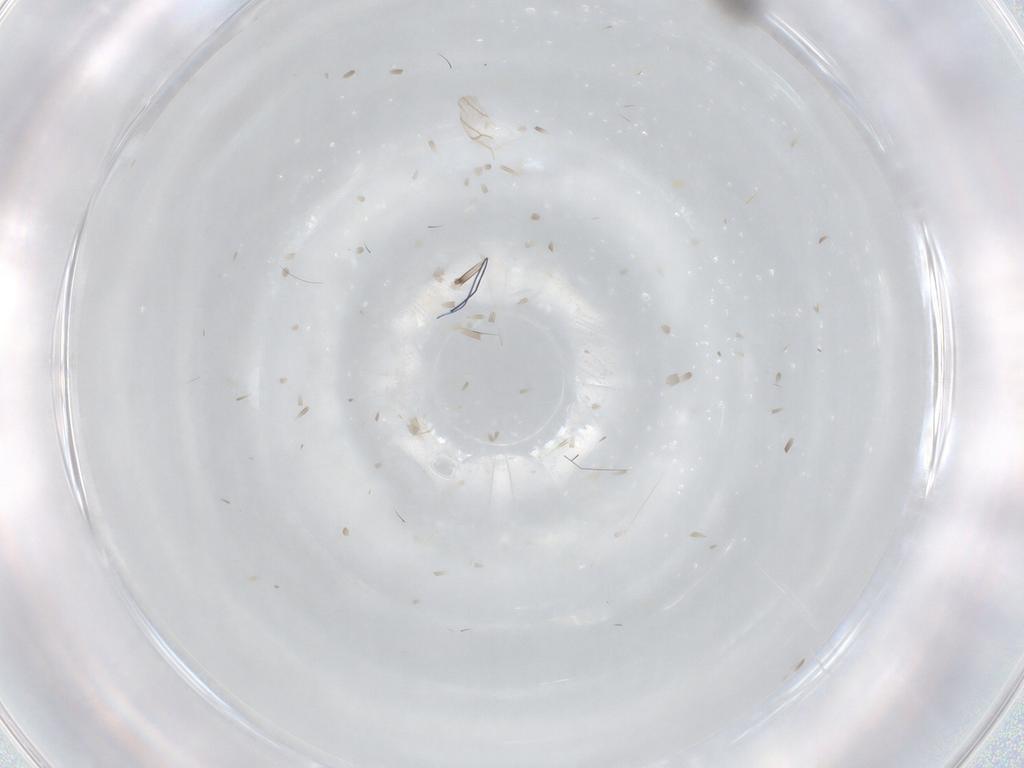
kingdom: Animalia
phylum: Arthropoda
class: Insecta
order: Hymenoptera
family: Scelionidae
